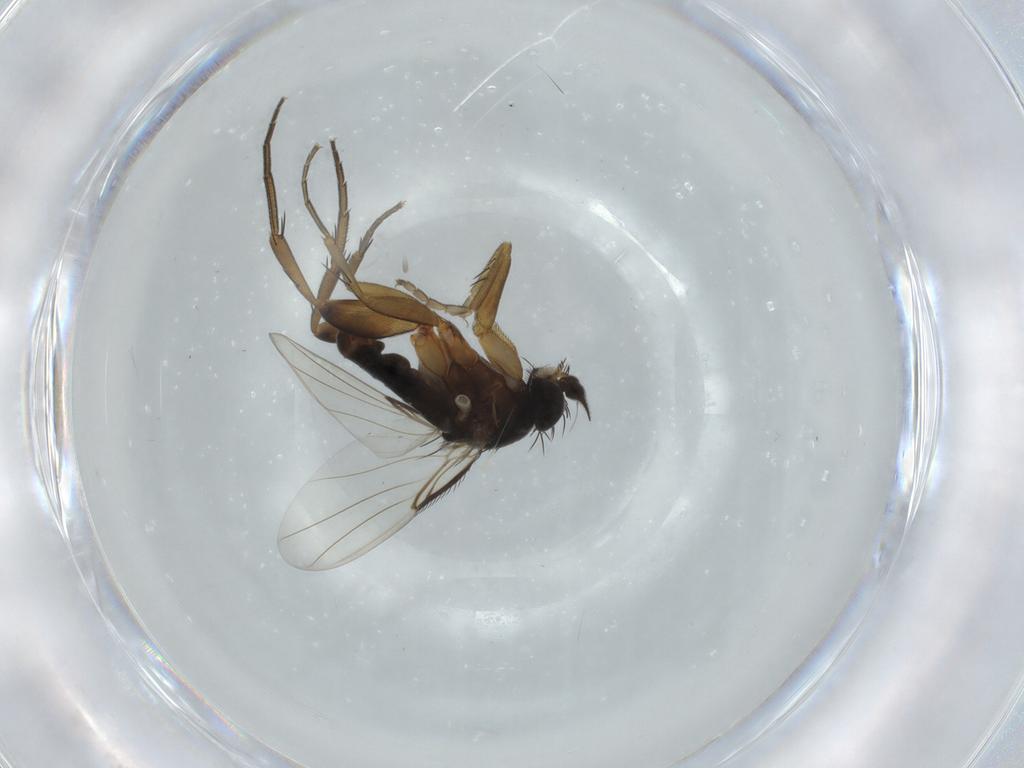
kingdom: Animalia
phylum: Arthropoda
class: Insecta
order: Diptera
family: Phoridae
